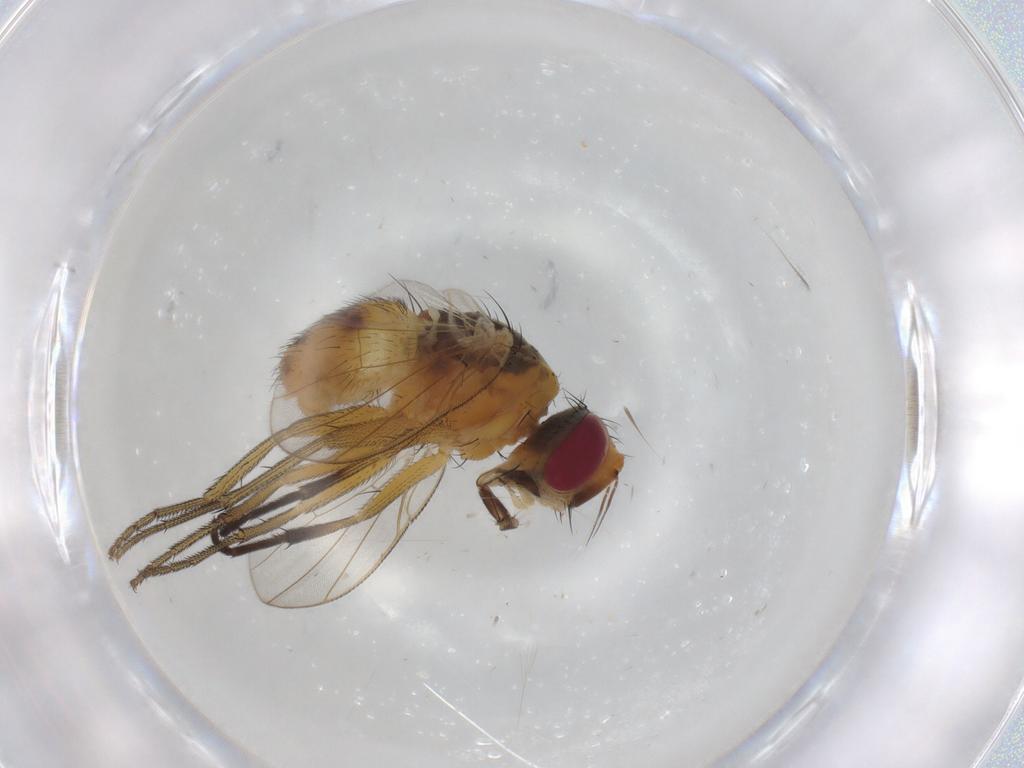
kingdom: Animalia
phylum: Arthropoda
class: Insecta
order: Diptera
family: Muscidae
